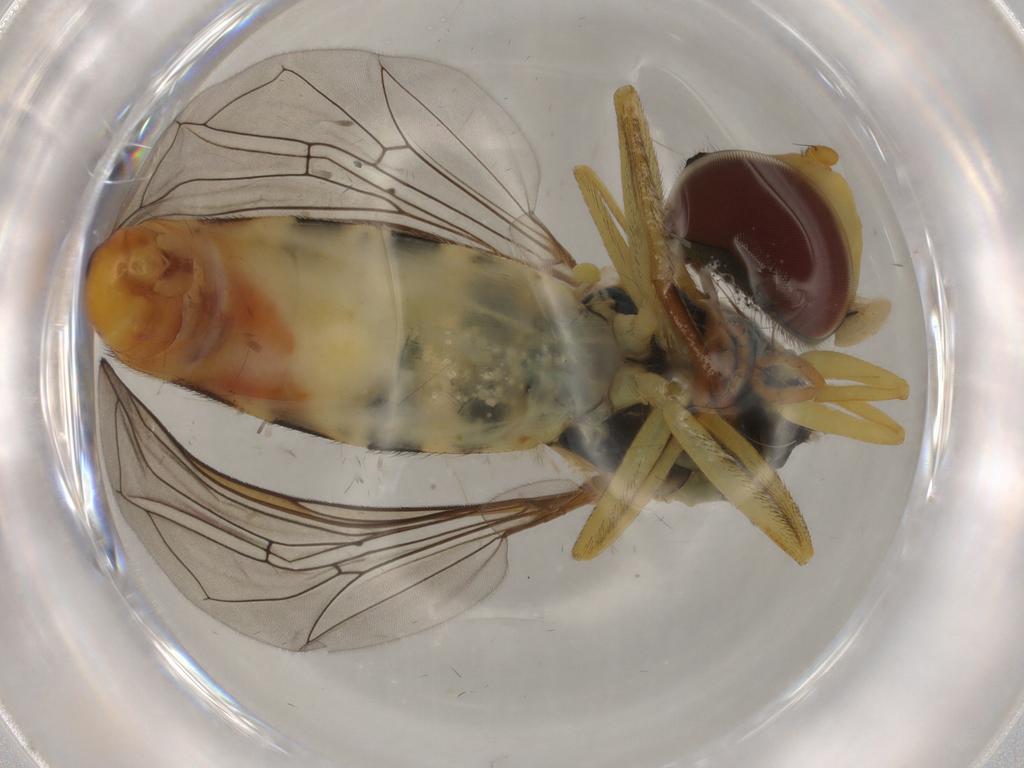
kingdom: Animalia
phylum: Arthropoda
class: Insecta
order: Diptera
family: Syrphidae
